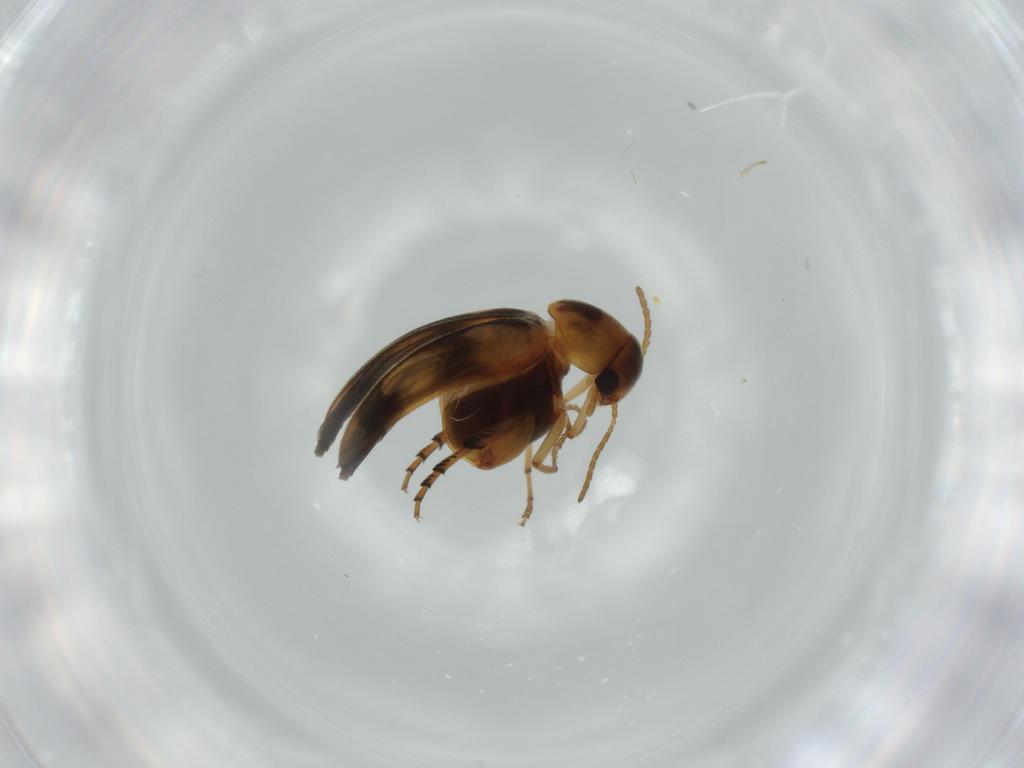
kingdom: Animalia
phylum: Arthropoda
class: Insecta
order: Coleoptera
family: Mordellidae
